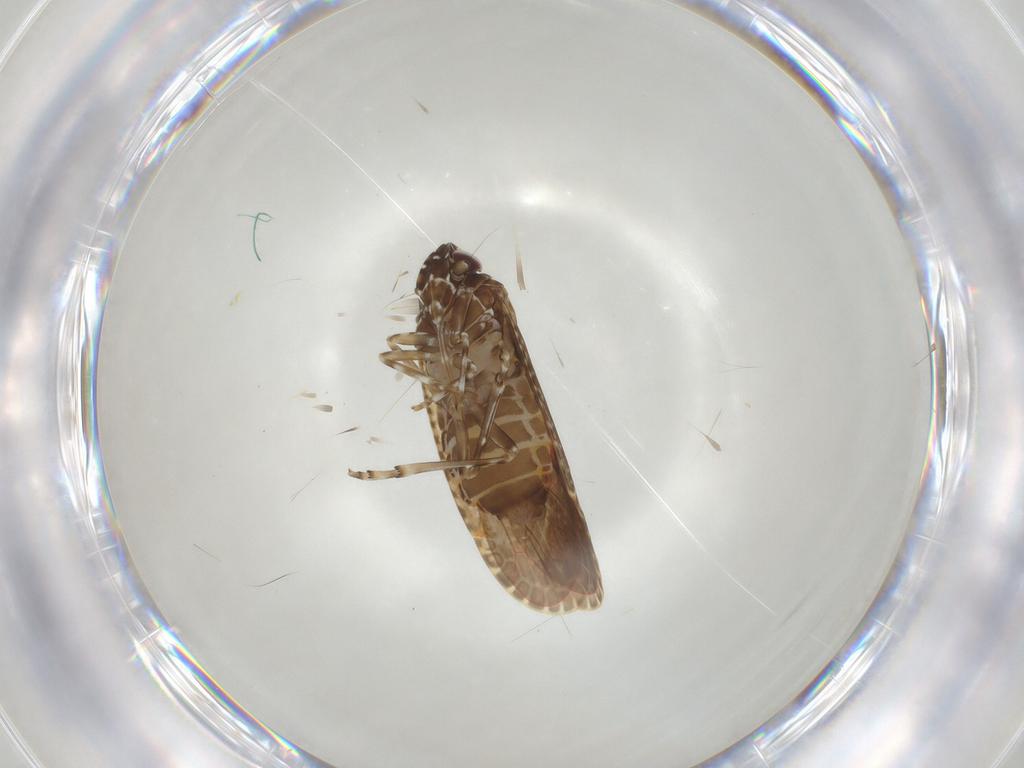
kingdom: Animalia
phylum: Arthropoda
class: Insecta
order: Hemiptera
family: Achilidae
